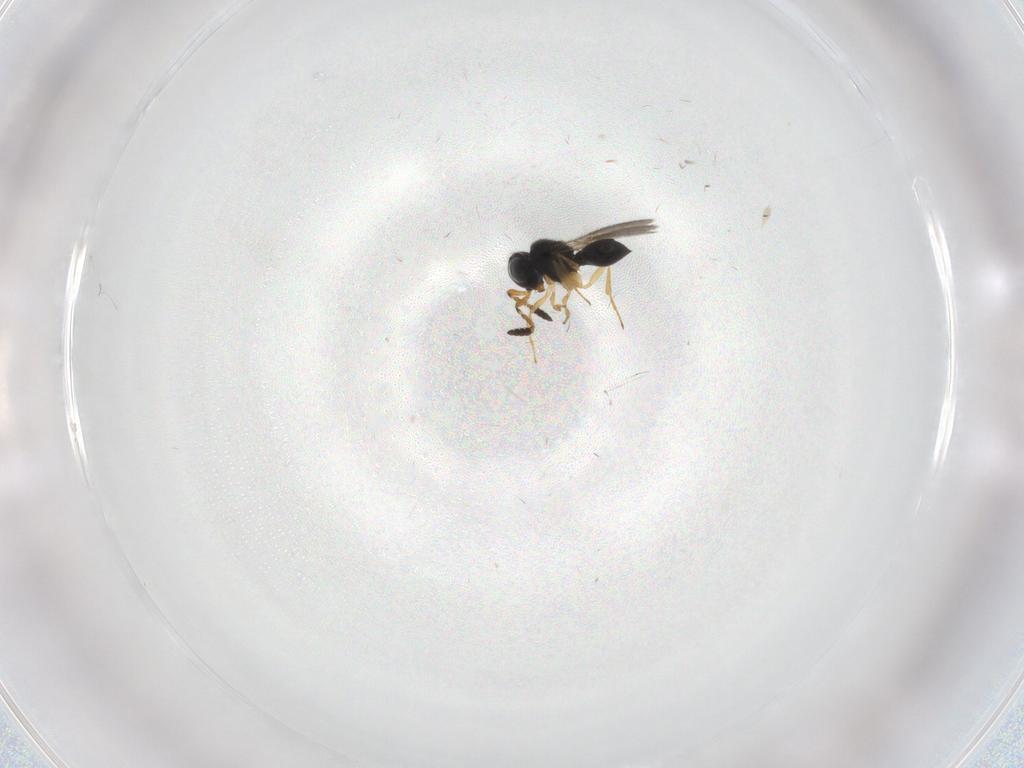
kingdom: Animalia
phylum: Arthropoda
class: Insecta
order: Hymenoptera
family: Scelionidae
